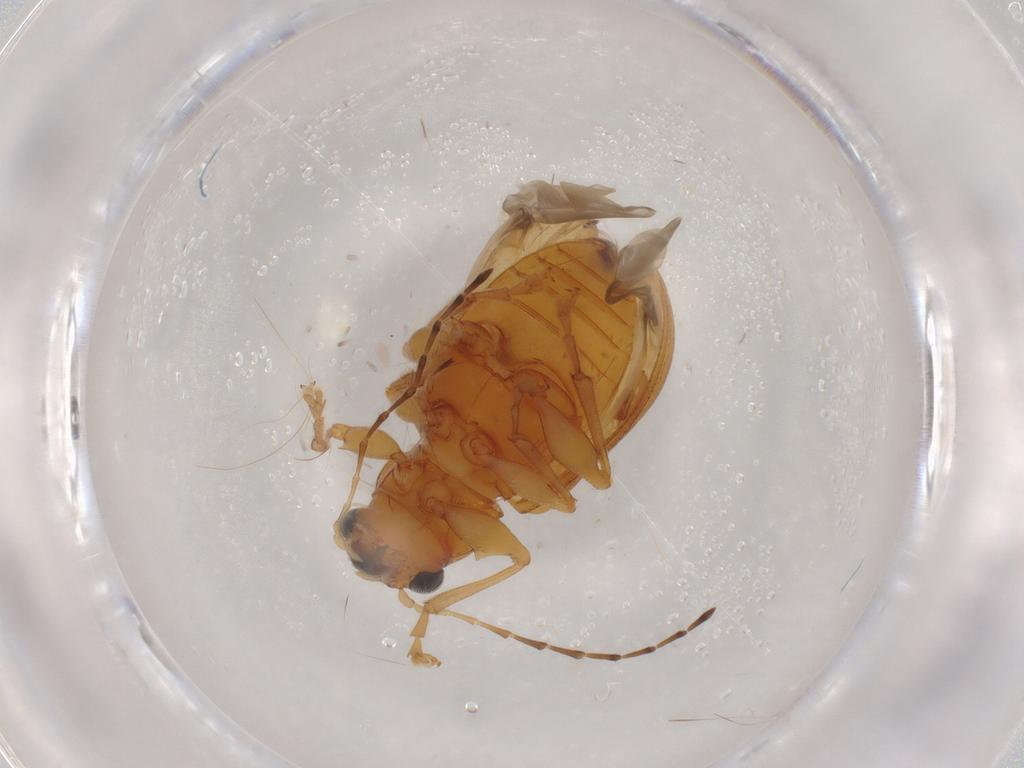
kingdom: Animalia
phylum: Arthropoda
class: Insecta
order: Coleoptera
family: Chrysomelidae
